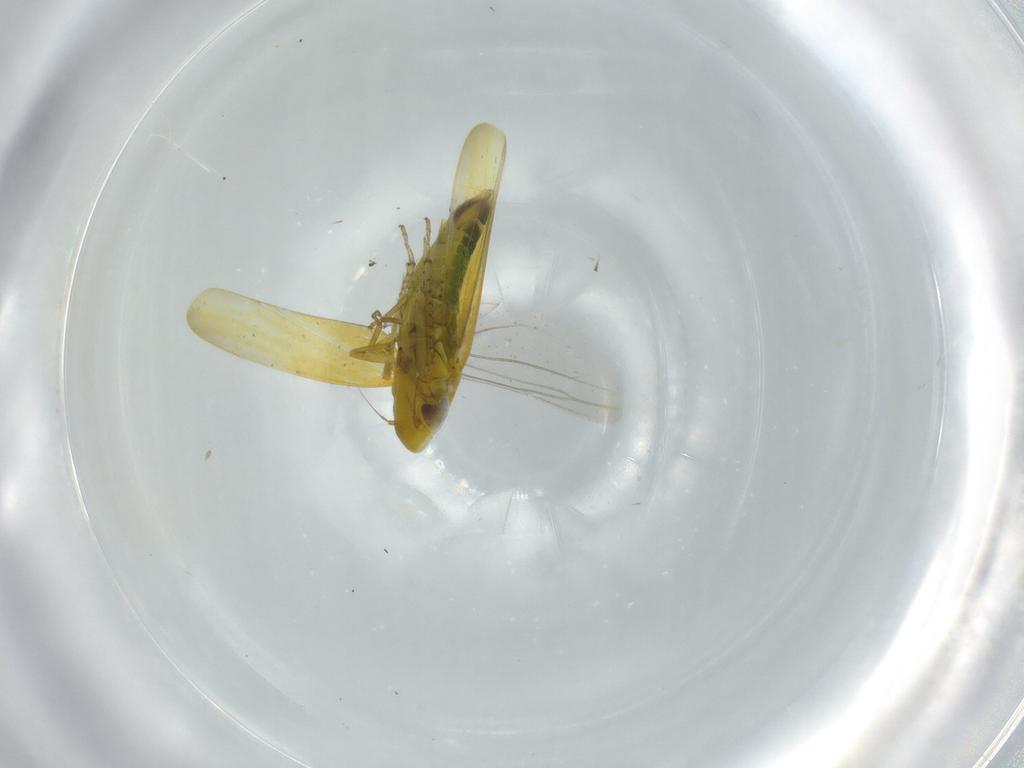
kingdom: Animalia
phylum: Arthropoda
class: Insecta
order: Hemiptera
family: Cicadellidae
